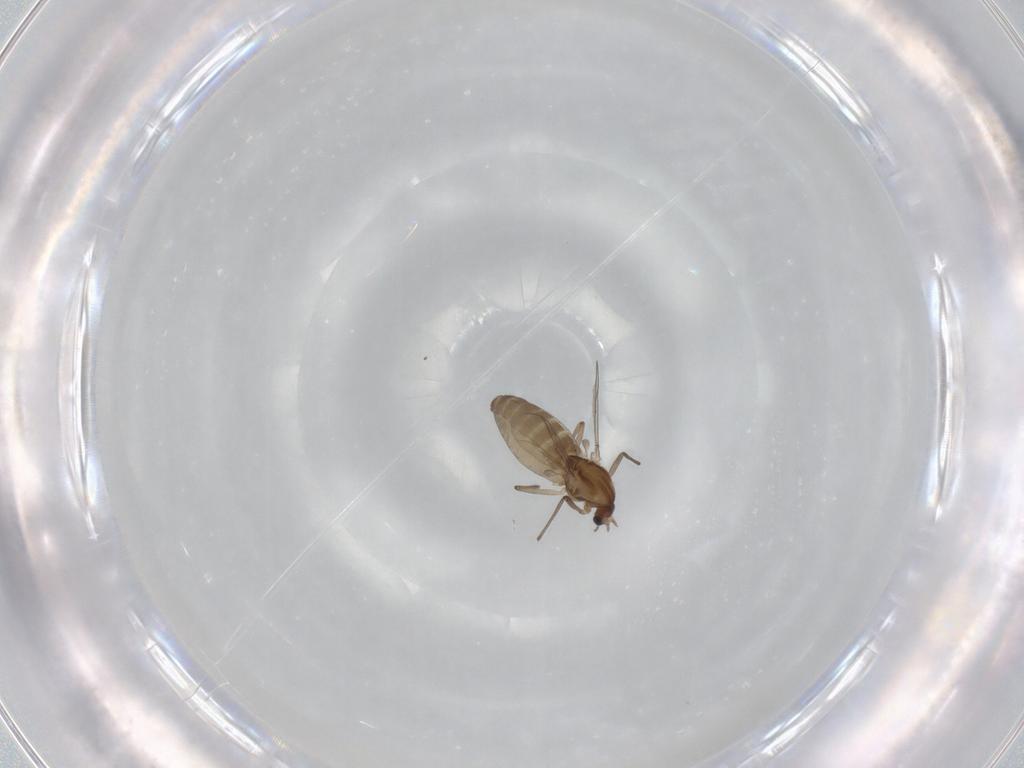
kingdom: Animalia
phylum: Arthropoda
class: Insecta
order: Diptera
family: Chironomidae
